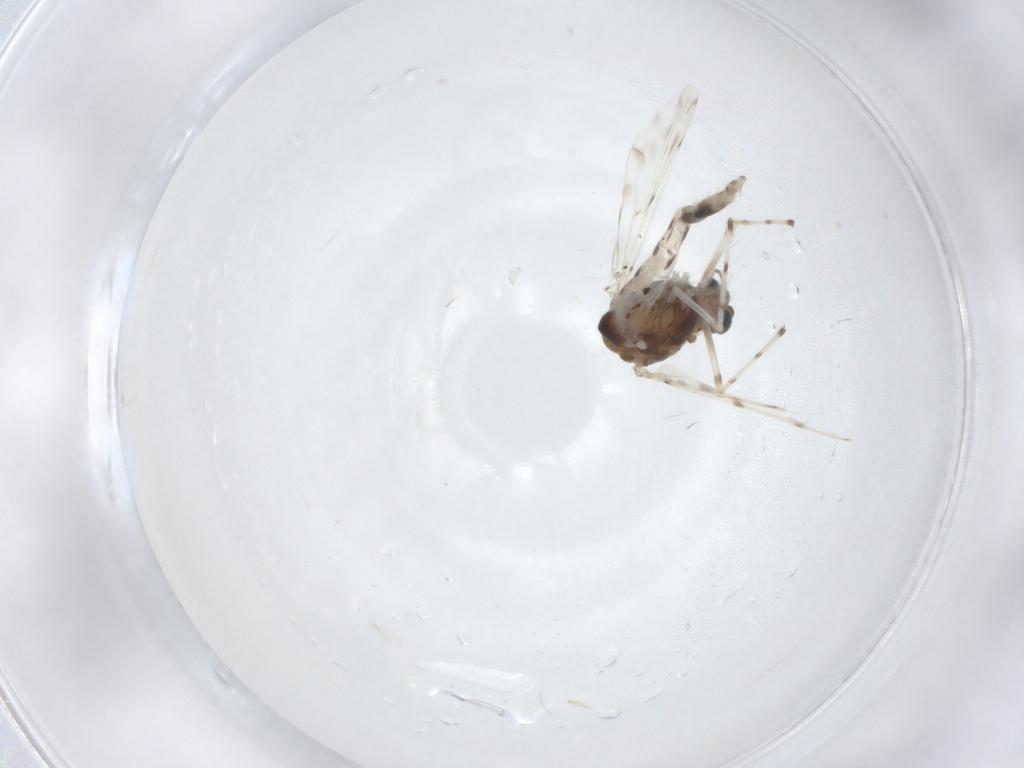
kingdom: Animalia
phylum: Arthropoda
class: Insecta
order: Diptera
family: Chironomidae
